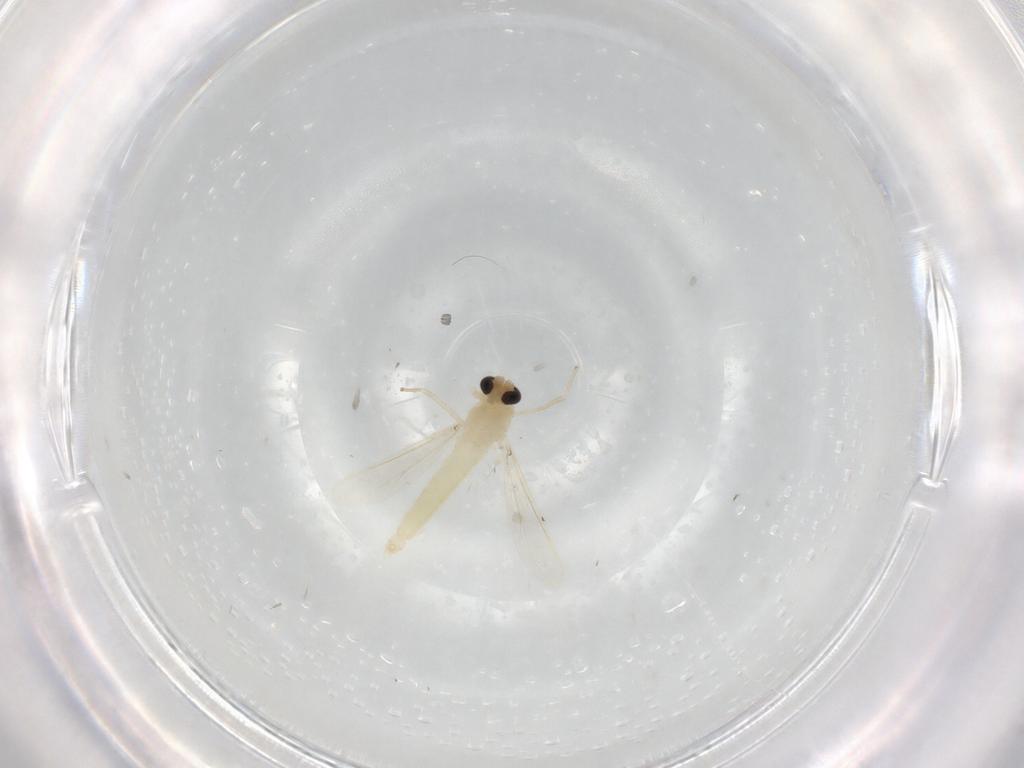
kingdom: Animalia
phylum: Arthropoda
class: Insecta
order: Diptera
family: Chironomidae
